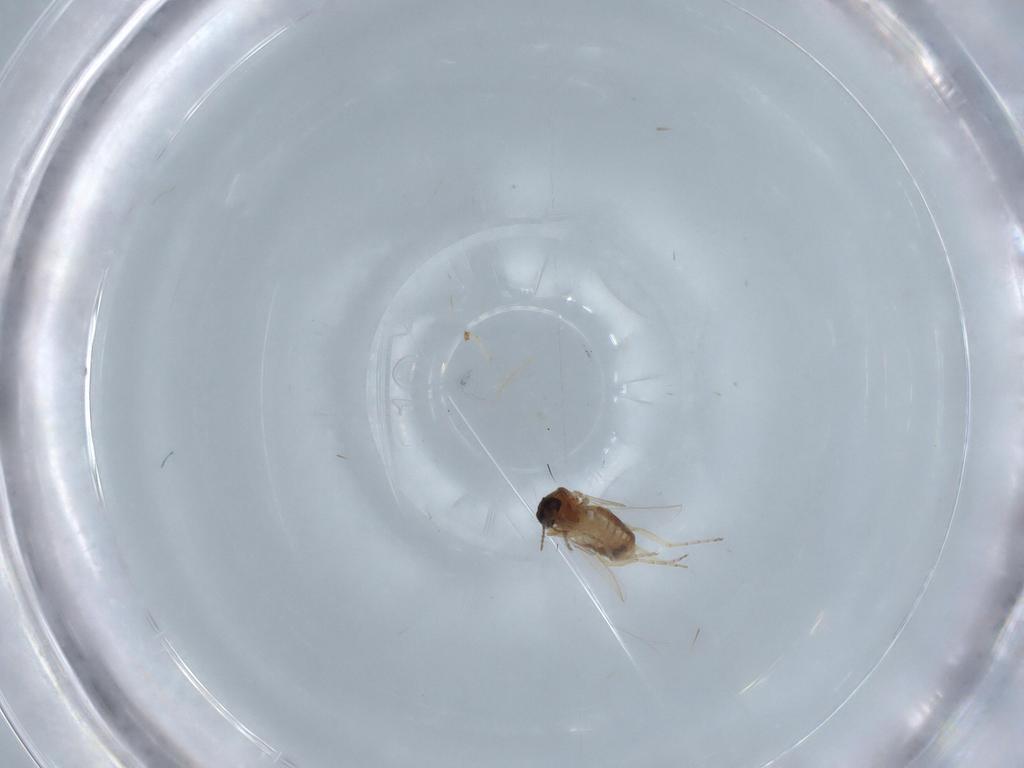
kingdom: Animalia
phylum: Arthropoda
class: Insecta
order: Diptera
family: Ceratopogonidae
